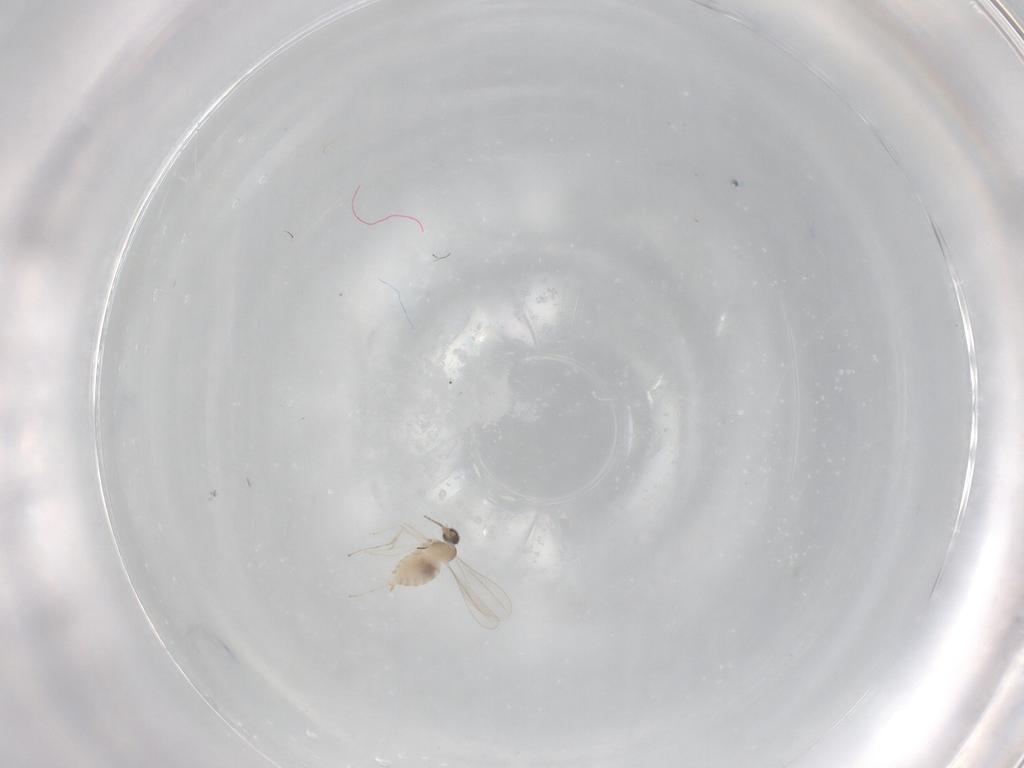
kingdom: Animalia
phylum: Arthropoda
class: Insecta
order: Diptera
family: Cecidomyiidae
